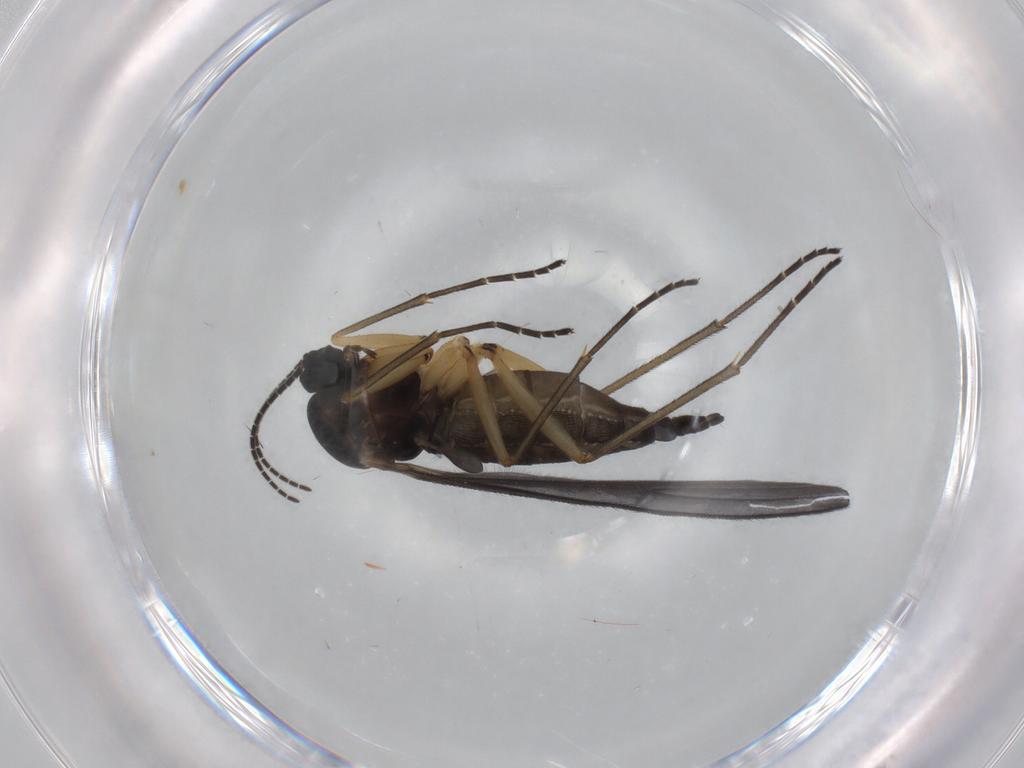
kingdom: Animalia
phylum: Arthropoda
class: Insecta
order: Diptera
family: Sciaridae
